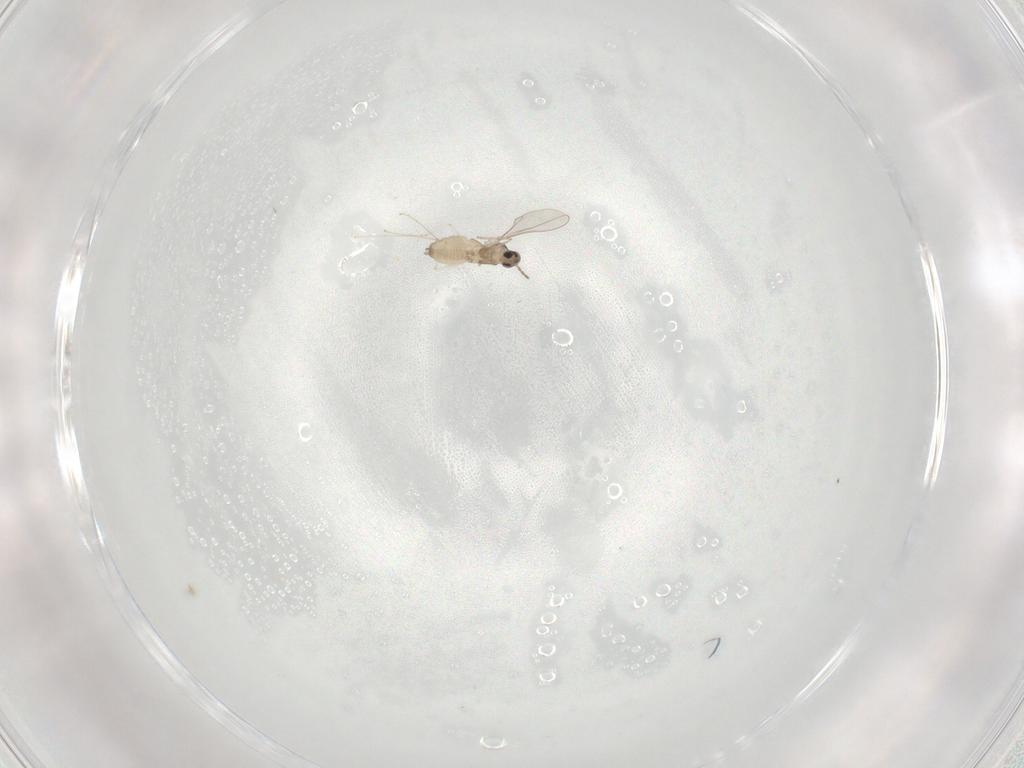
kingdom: Animalia
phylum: Arthropoda
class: Insecta
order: Diptera
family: Cecidomyiidae
